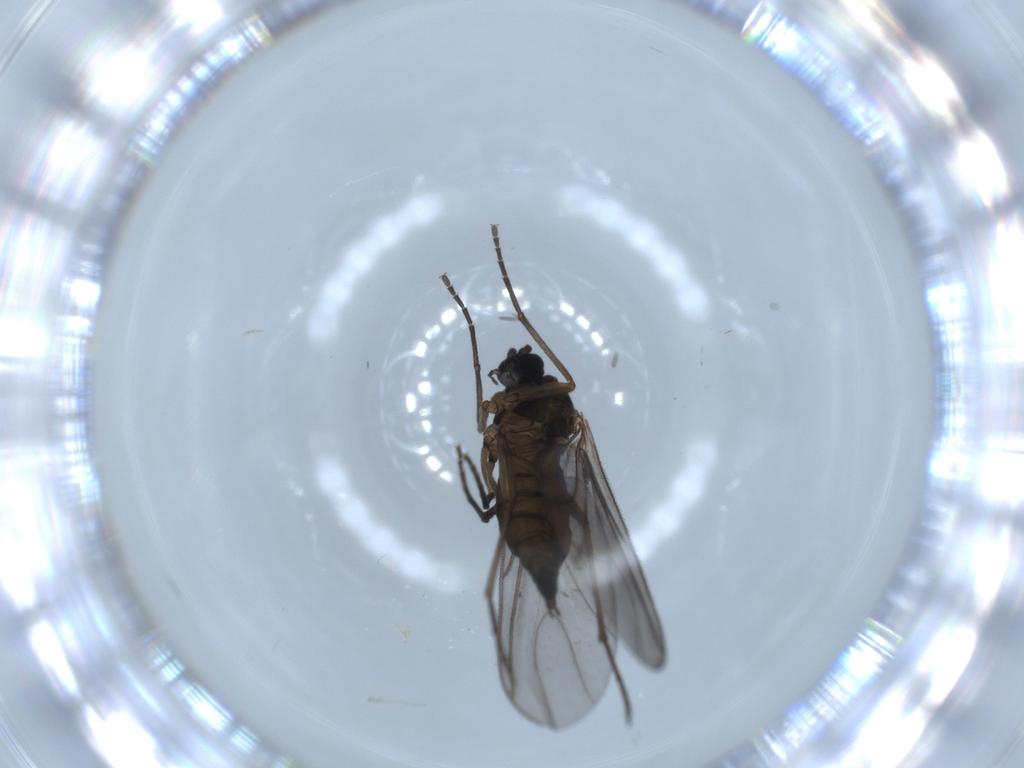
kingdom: Animalia
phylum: Arthropoda
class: Insecta
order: Diptera
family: Sciaridae
